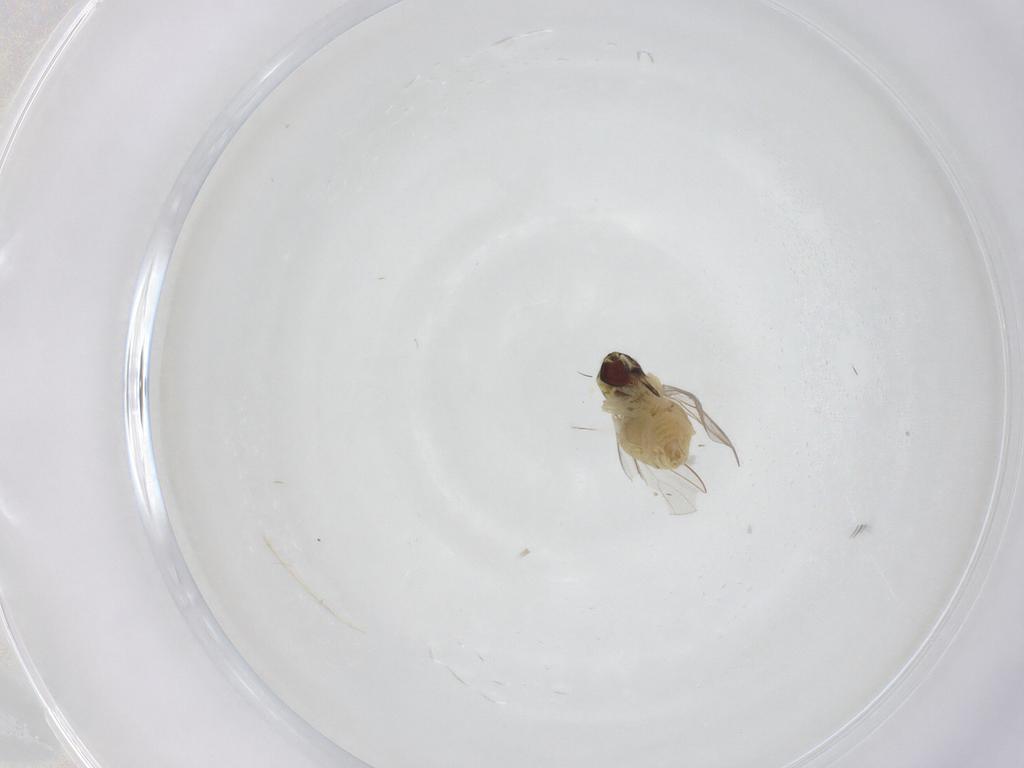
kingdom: Animalia
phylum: Arthropoda
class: Insecta
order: Diptera
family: Mythicomyiidae
